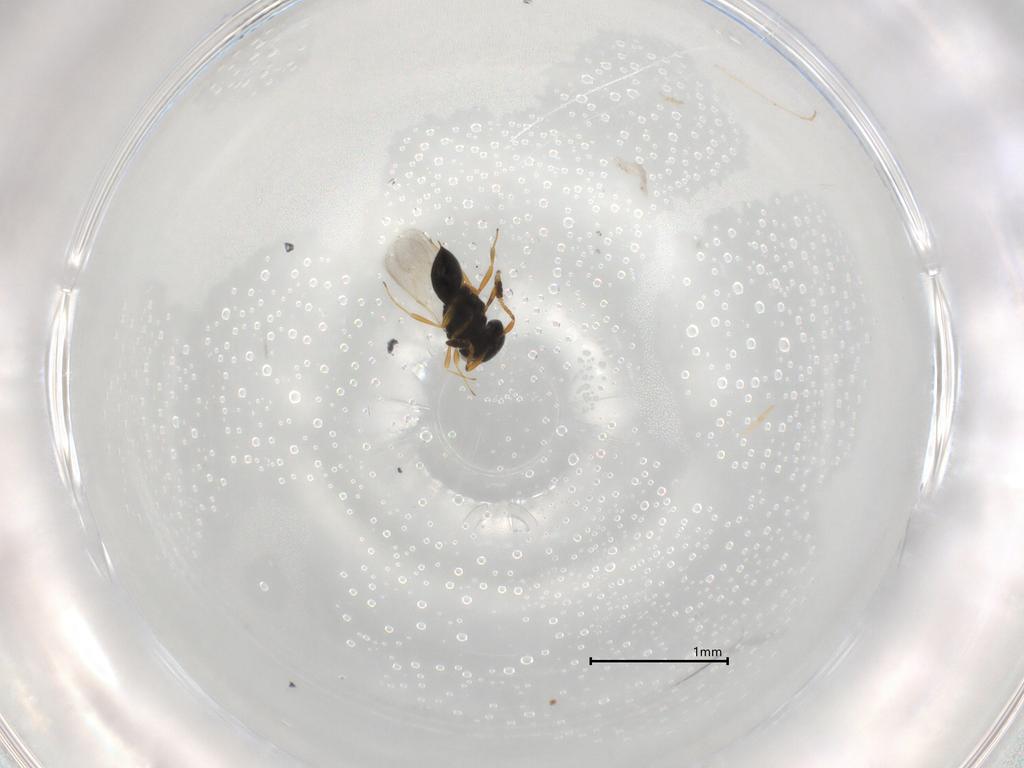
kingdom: Animalia
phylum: Arthropoda
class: Insecta
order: Hymenoptera
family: Scelionidae
